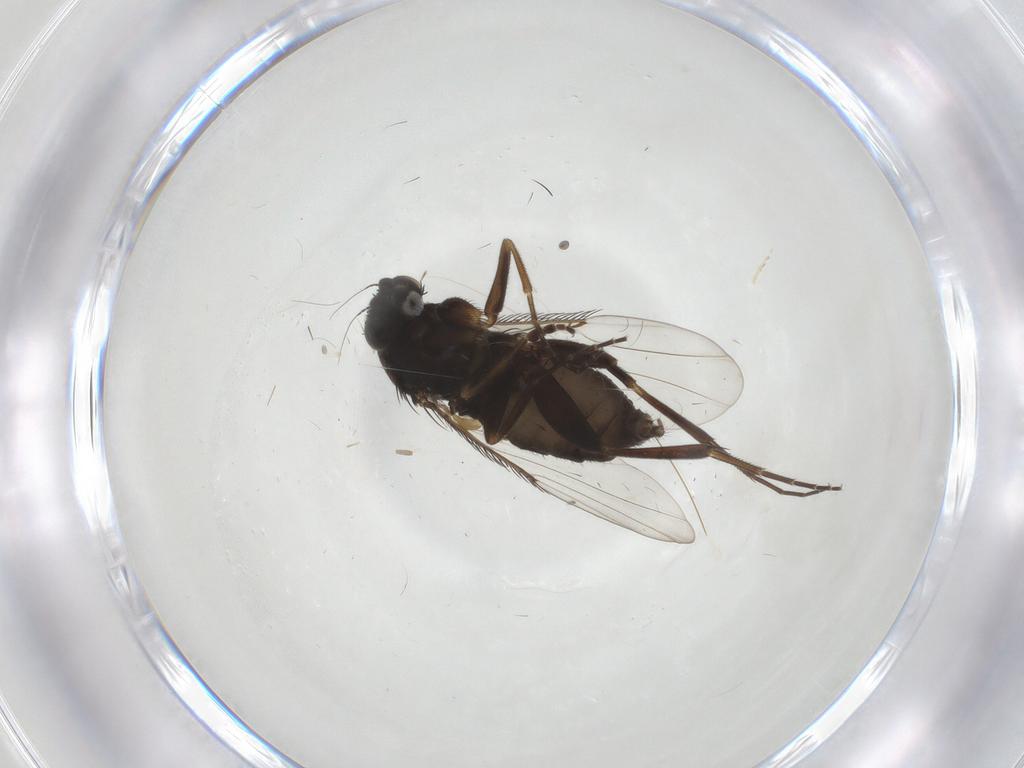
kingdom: Animalia
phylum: Arthropoda
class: Insecta
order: Diptera
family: Phoridae
